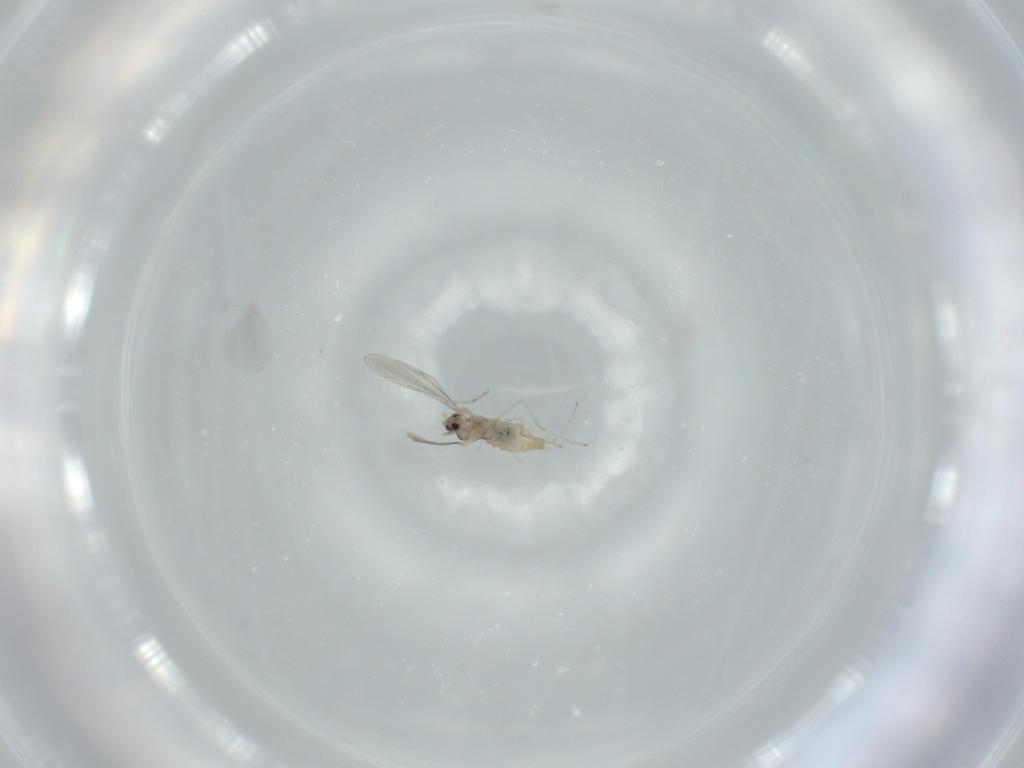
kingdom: Animalia
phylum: Arthropoda
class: Insecta
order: Diptera
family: Cecidomyiidae
